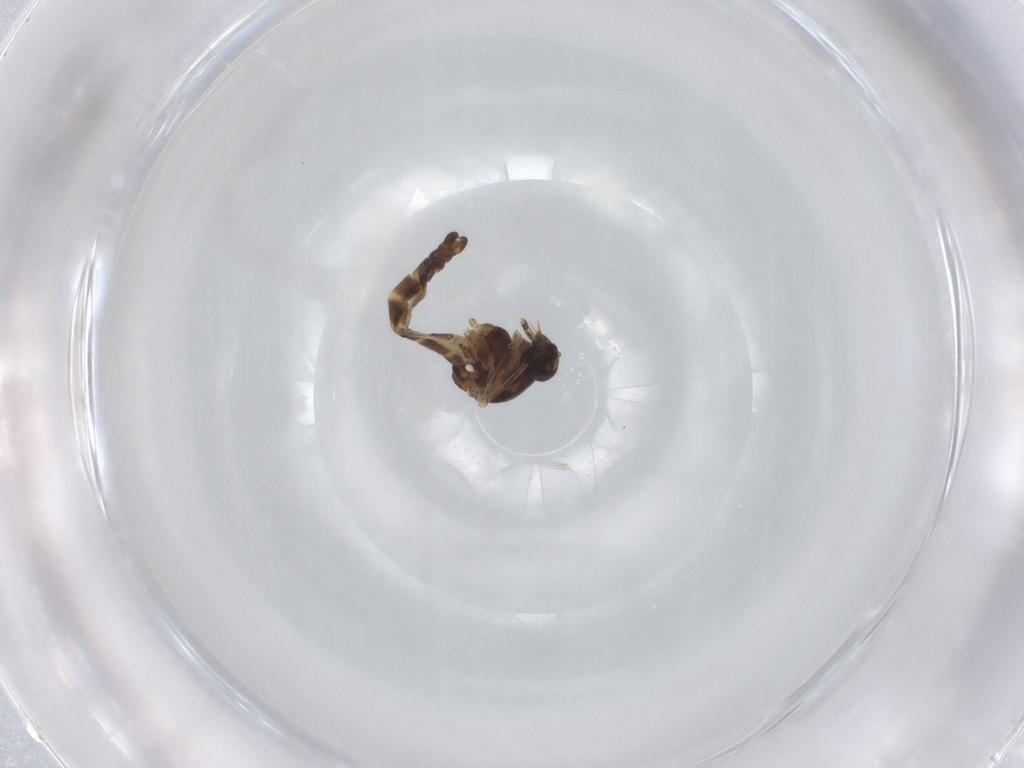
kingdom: Animalia
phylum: Arthropoda
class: Insecta
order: Diptera
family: Ceratopogonidae
